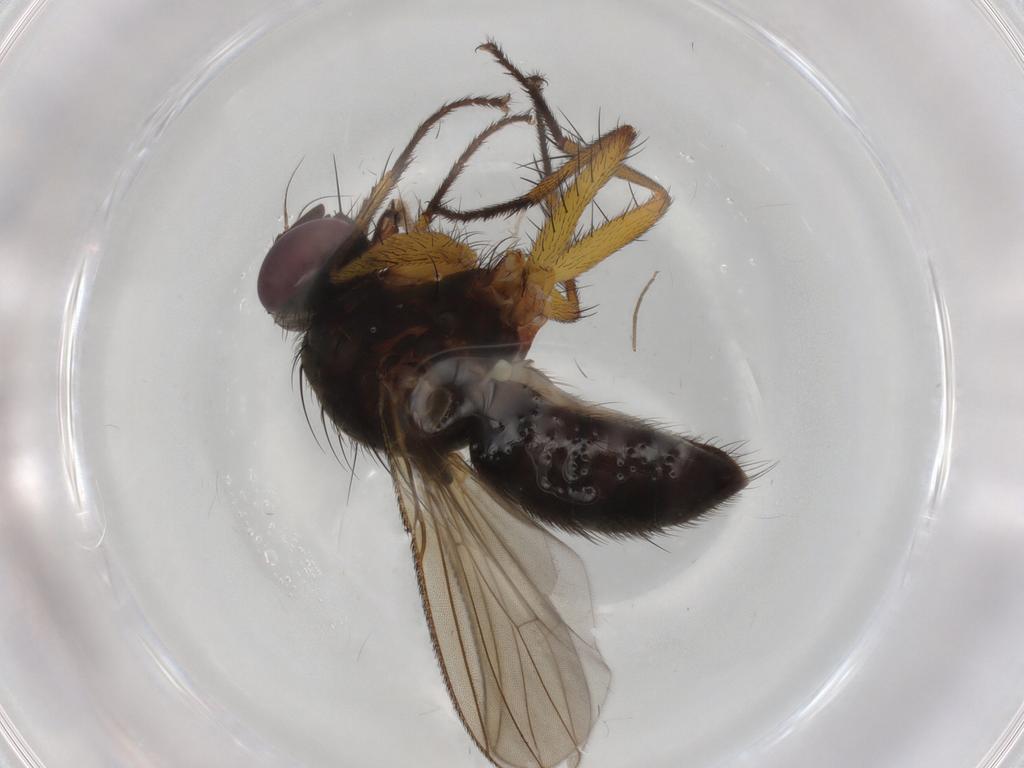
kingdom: Animalia
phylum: Arthropoda
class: Insecta
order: Diptera
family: Muscidae
